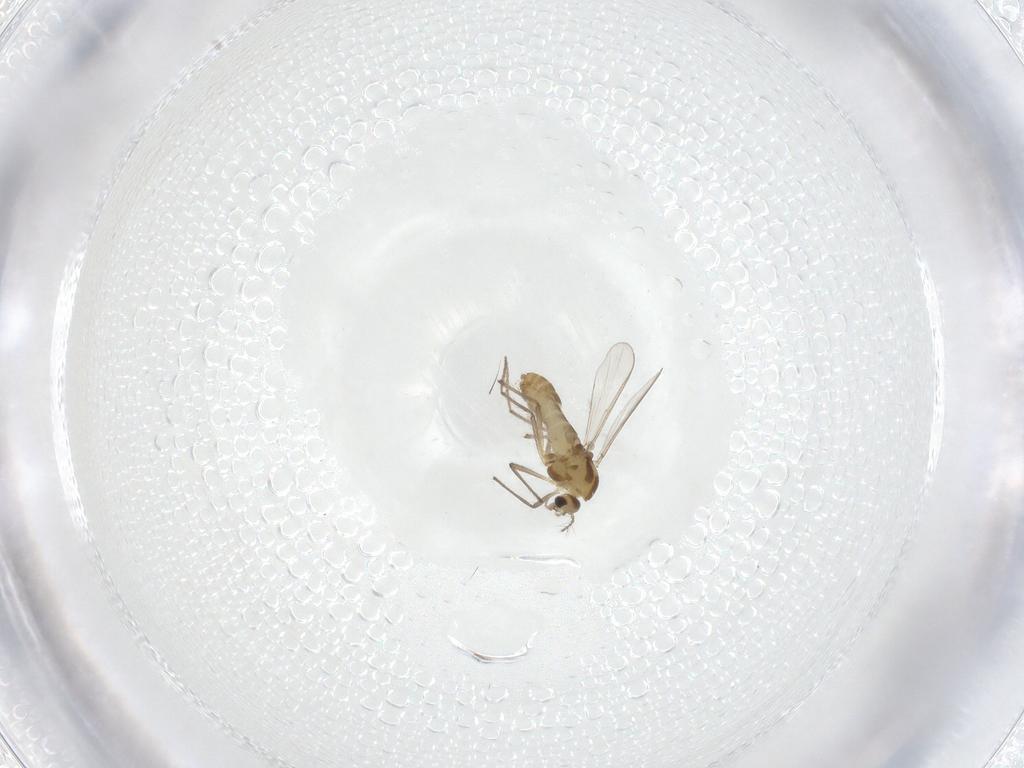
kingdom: Animalia
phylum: Arthropoda
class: Insecta
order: Diptera
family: Chironomidae
